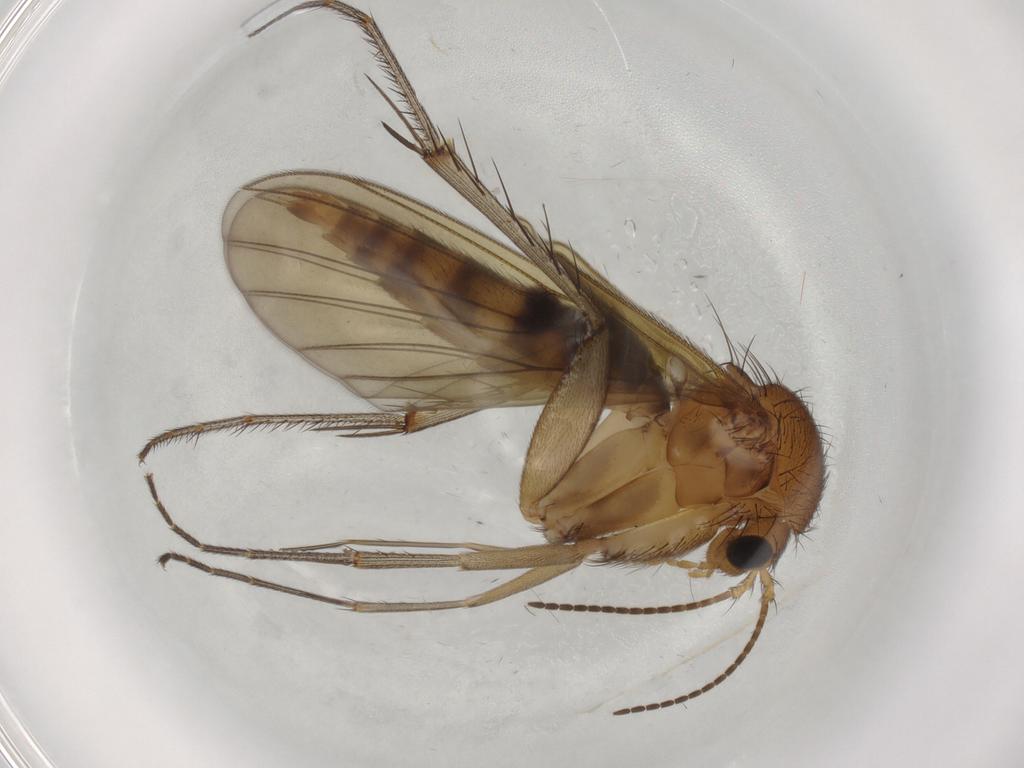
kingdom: Animalia
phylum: Arthropoda
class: Insecta
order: Diptera
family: Mycetophilidae
